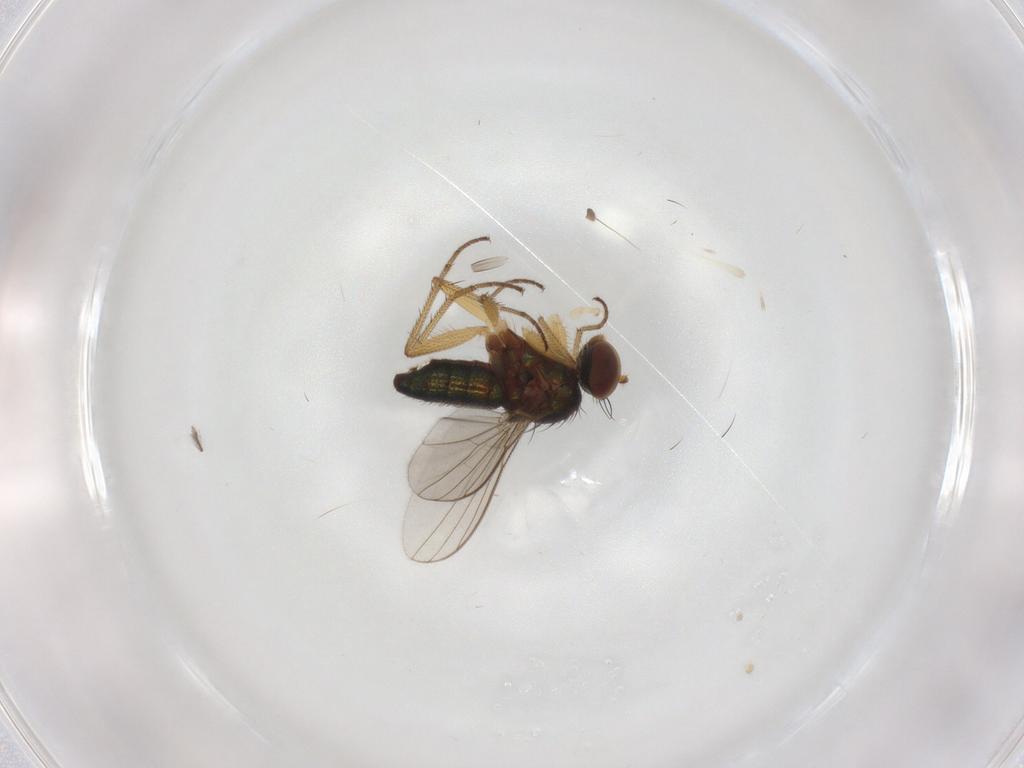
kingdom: Animalia
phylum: Arthropoda
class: Insecta
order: Diptera
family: Dolichopodidae
